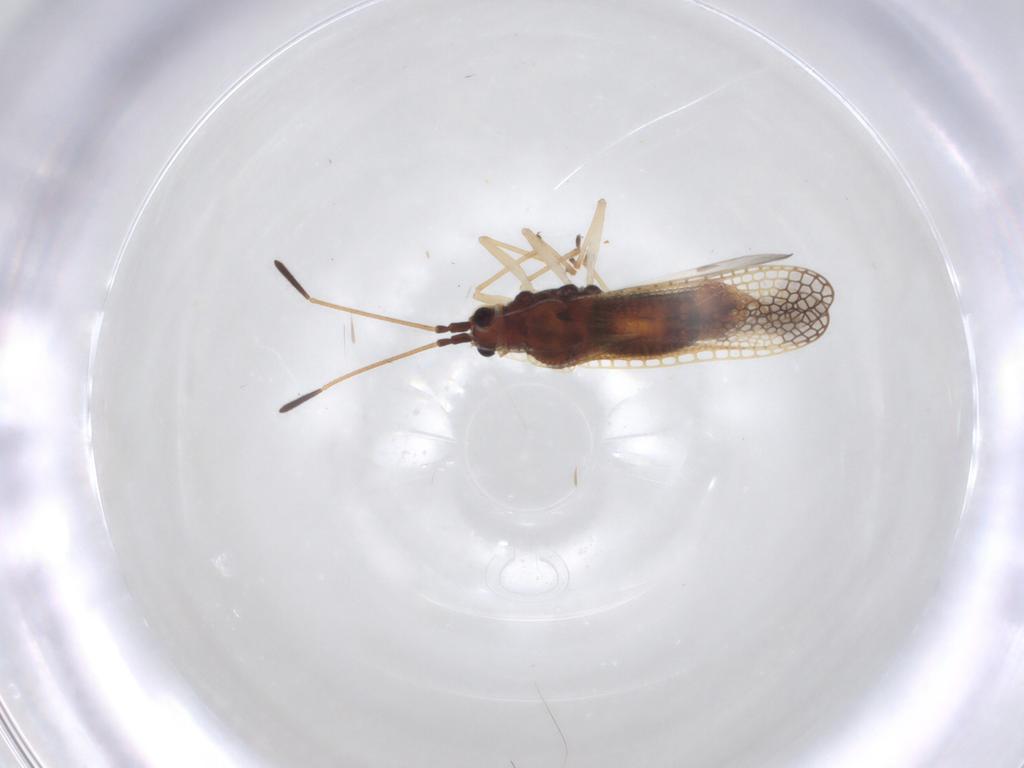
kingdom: Animalia
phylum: Arthropoda
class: Insecta
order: Hemiptera
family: Tingidae
